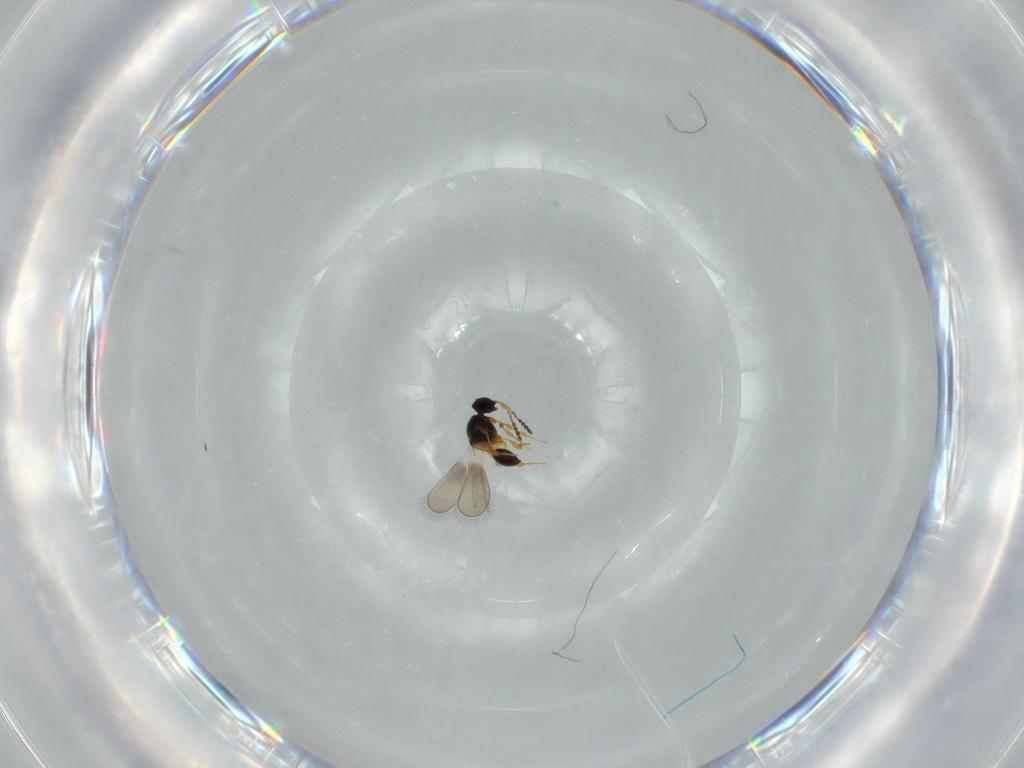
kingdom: Animalia
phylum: Arthropoda
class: Insecta
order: Hymenoptera
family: Platygastridae
